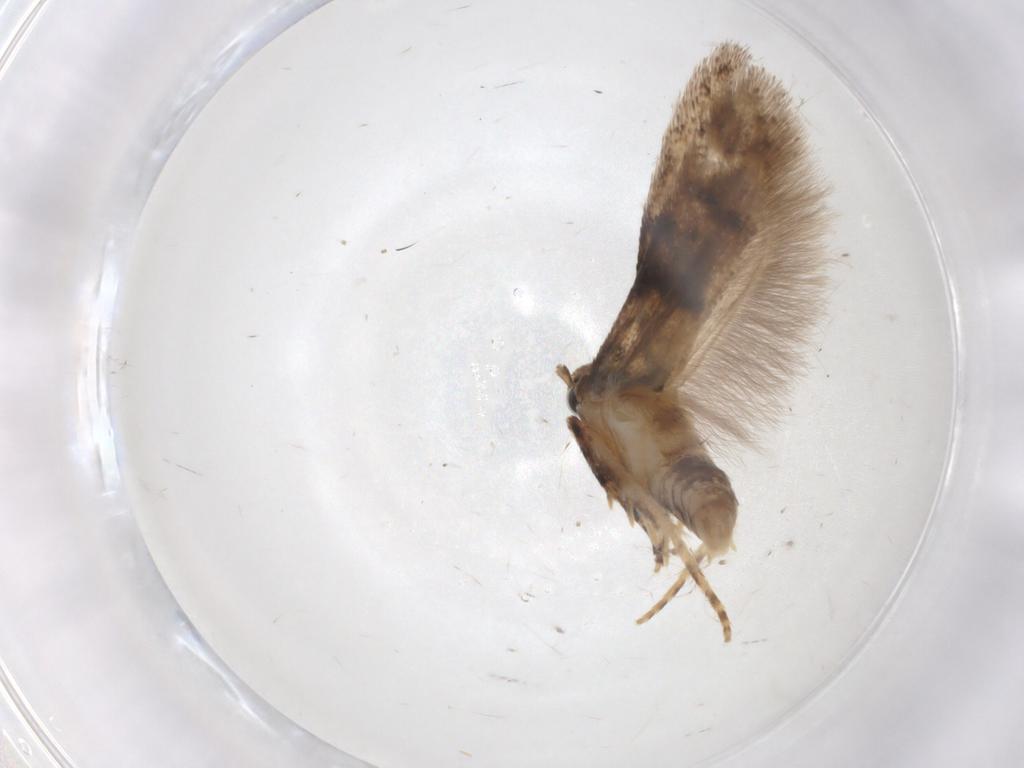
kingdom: Animalia
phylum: Arthropoda
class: Insecta
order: Lepidoptera
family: Gelechiidae
